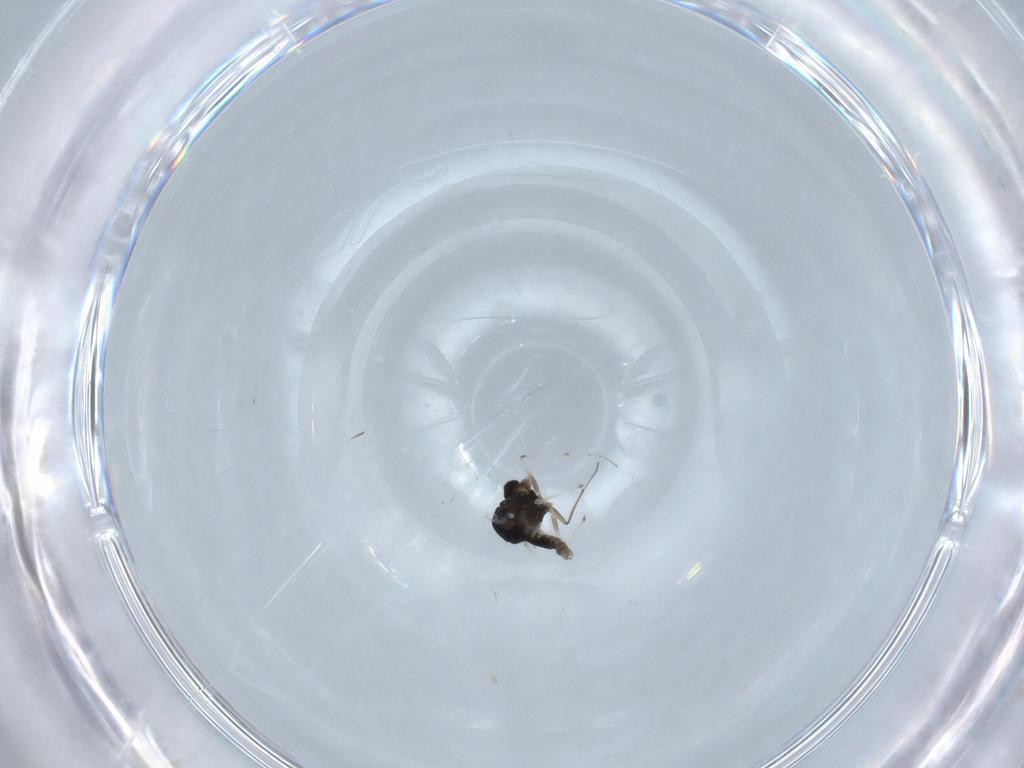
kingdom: Animalia
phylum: Arthropoda
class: Insecta
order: Diptera
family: Chironomidae
